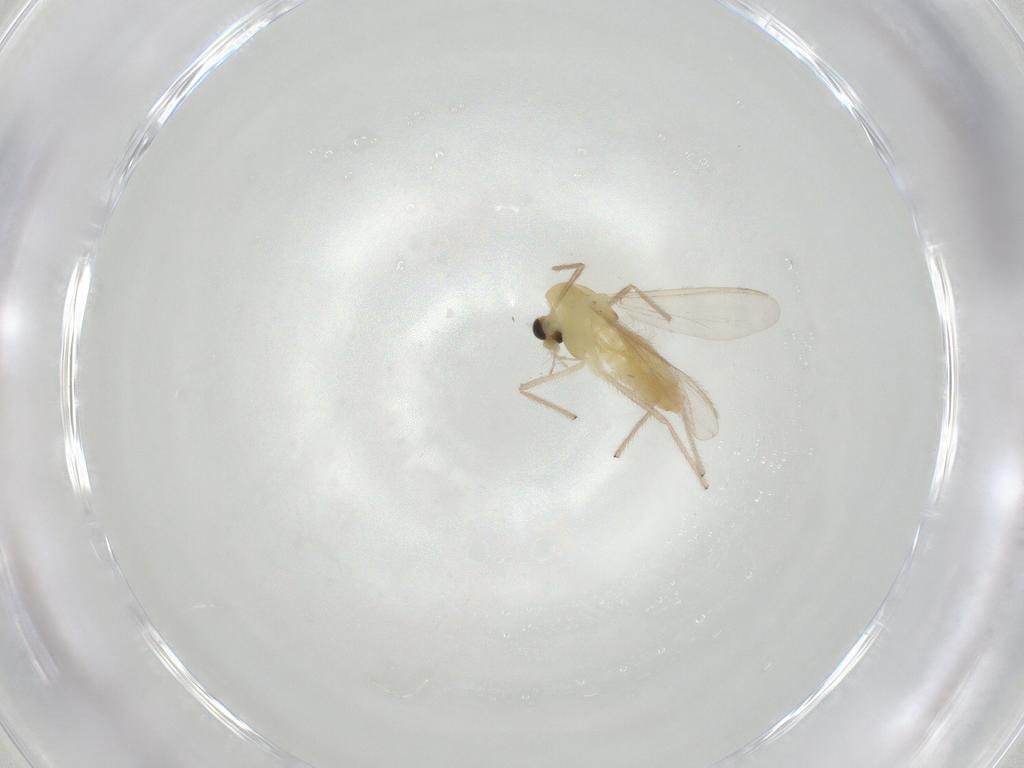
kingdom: Animalia
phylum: Arthropoda
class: Insecta
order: Diptera
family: Chironomidae
